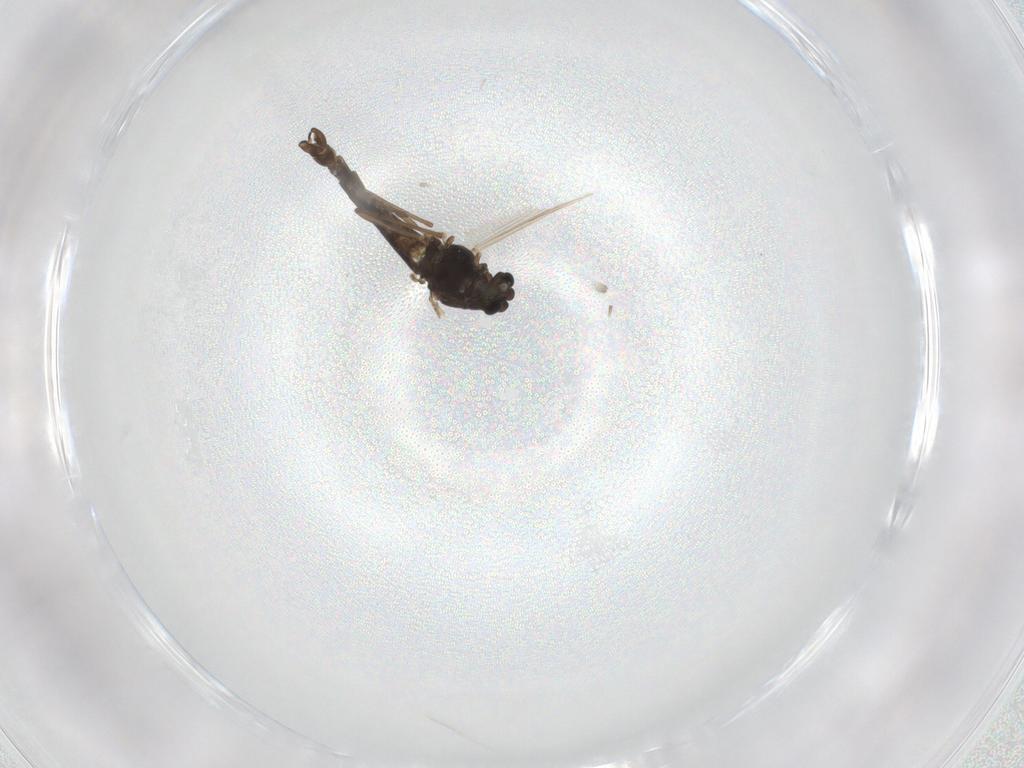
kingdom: Animalia
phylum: Arthropoda
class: Insecta
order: Diptera
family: Chironomidae
